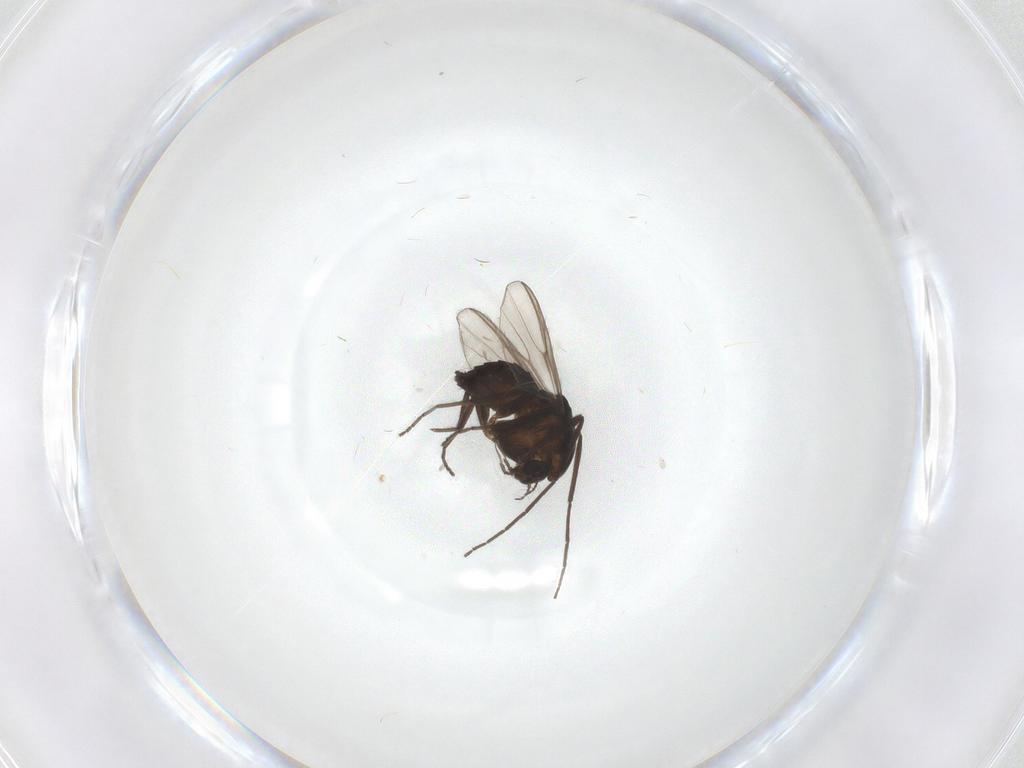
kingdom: Animalia
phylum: Arthropoda
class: Insecta
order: Diptera
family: Chironomidae
